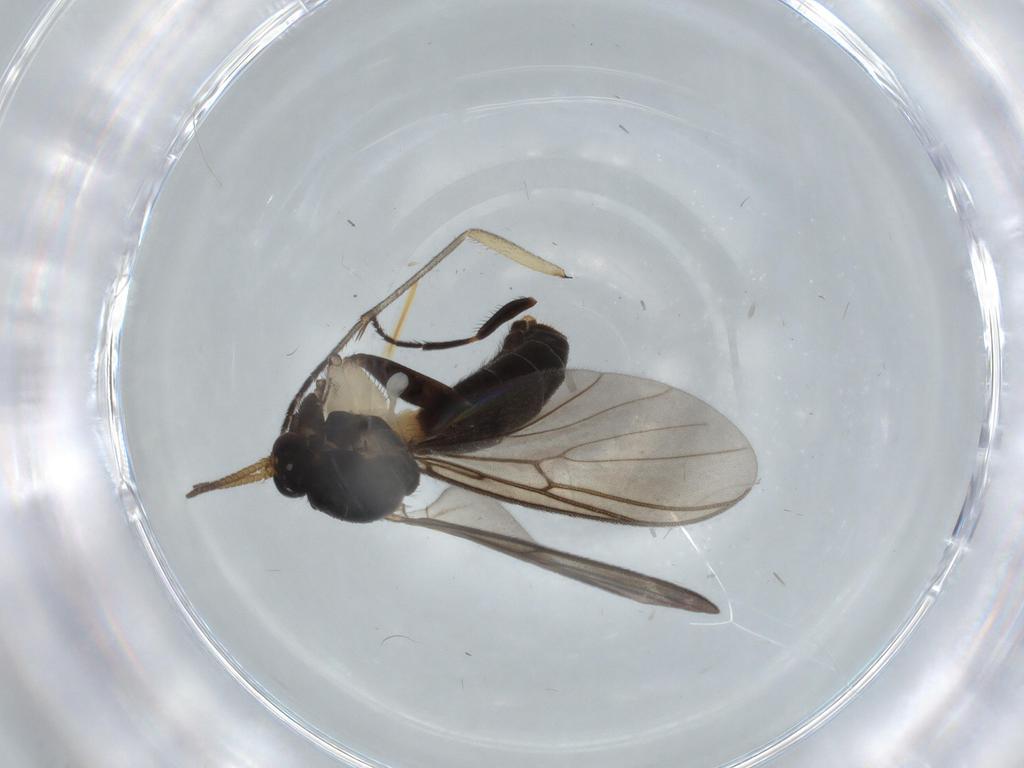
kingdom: Animalia
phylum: Arthropoda
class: Insecta
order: Diptera
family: Milichiidae
